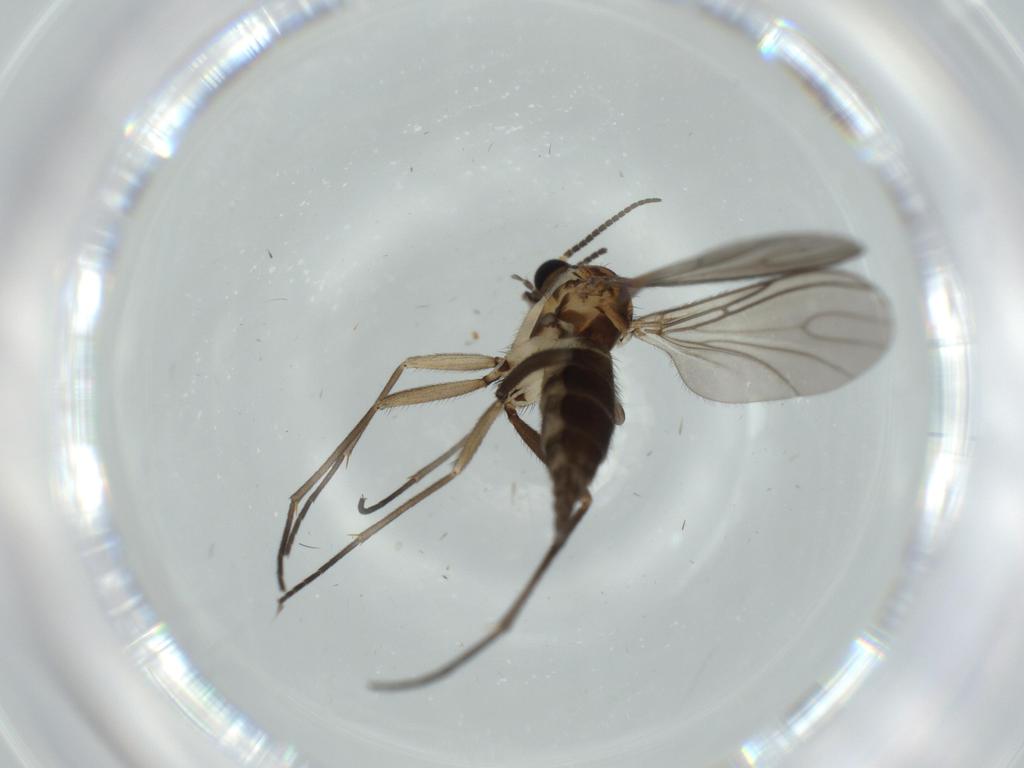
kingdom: Animalia
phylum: Arthropoda
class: Insecta
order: Diptera
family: Sciaridae
